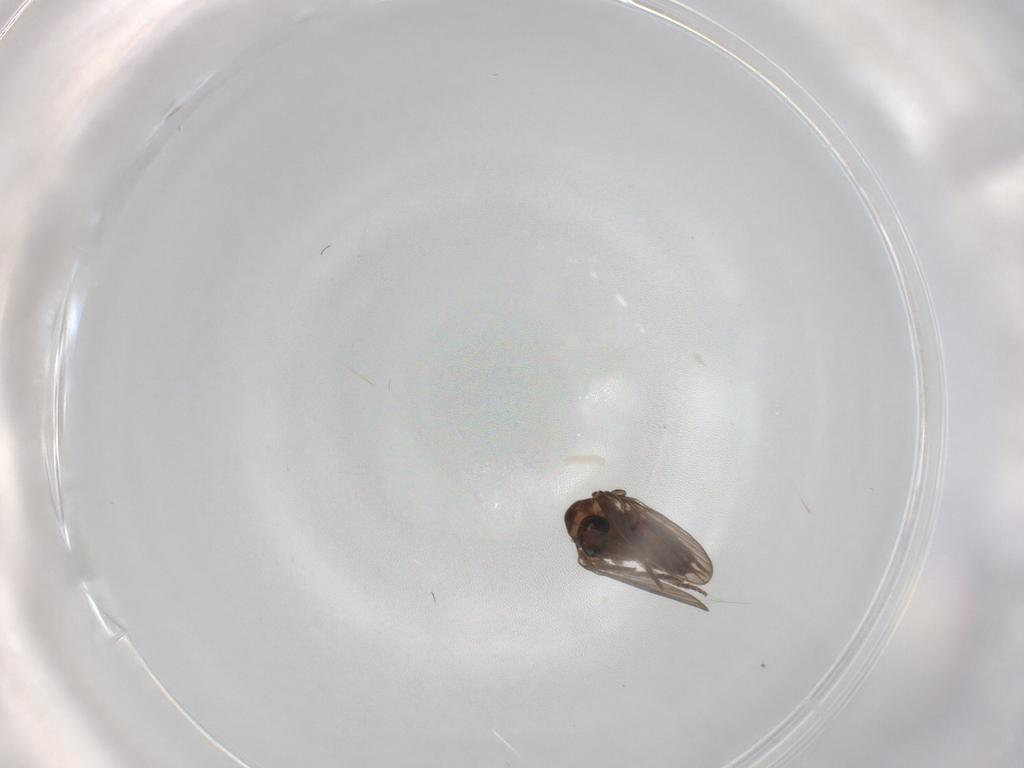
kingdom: Animalia
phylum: Arthropoda
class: Insecta
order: Diptera
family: Psychodidae
